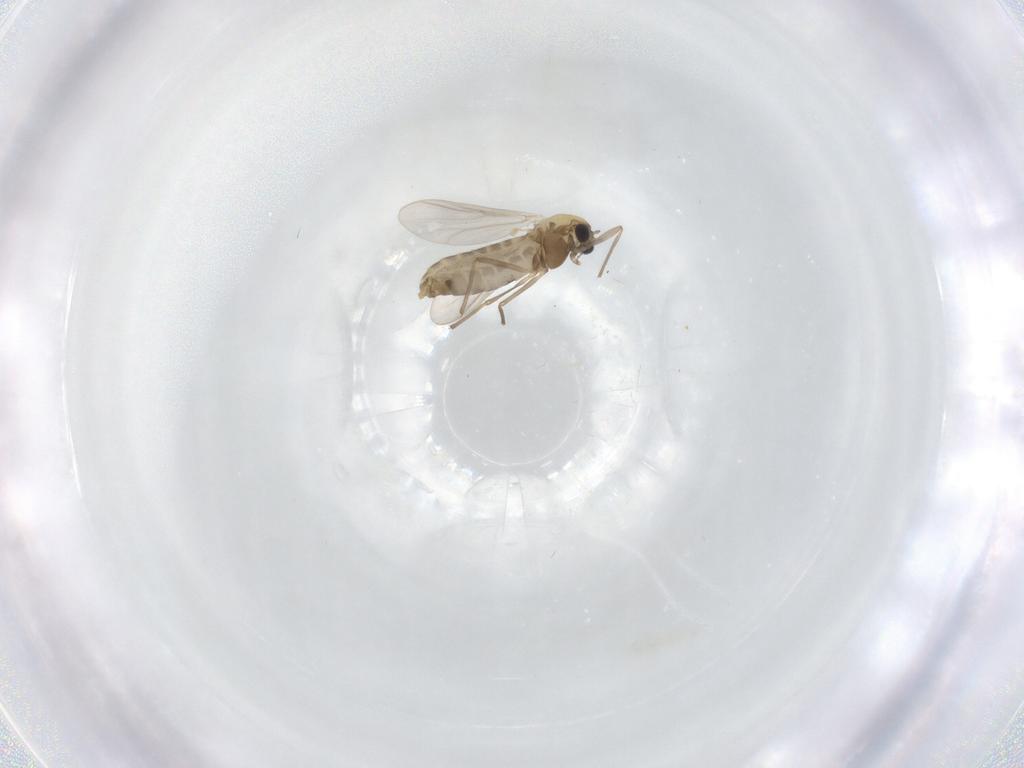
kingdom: Animalia
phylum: Arthropoda
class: Insecta
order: Diptera
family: Chironomidae
